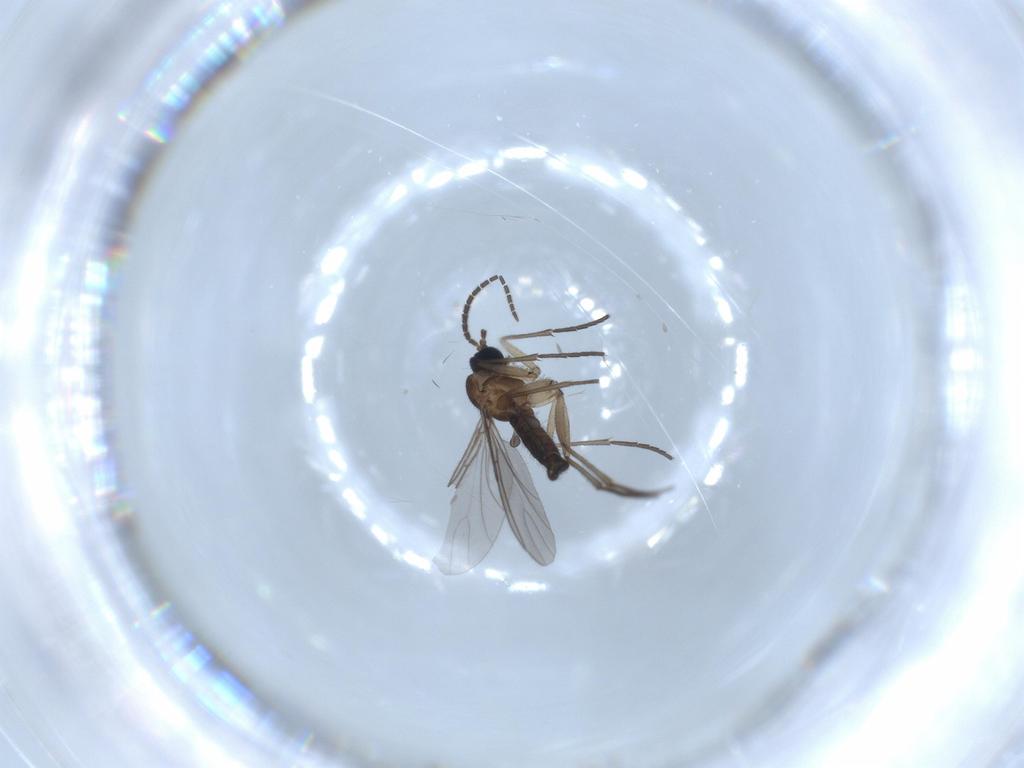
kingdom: Animalia
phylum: Arthropoda
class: Insecta
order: Diptera
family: Sciaridae
